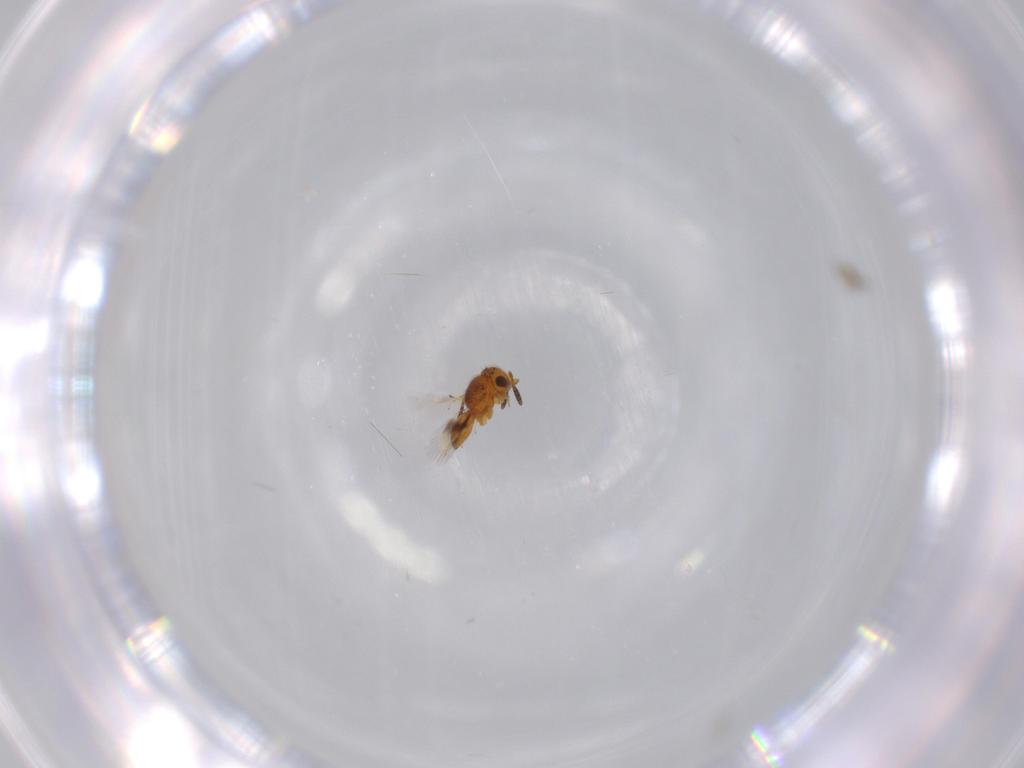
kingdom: Animalia
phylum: Arthropoda
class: Insecta
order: Hymenoptera
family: Scelionidae
